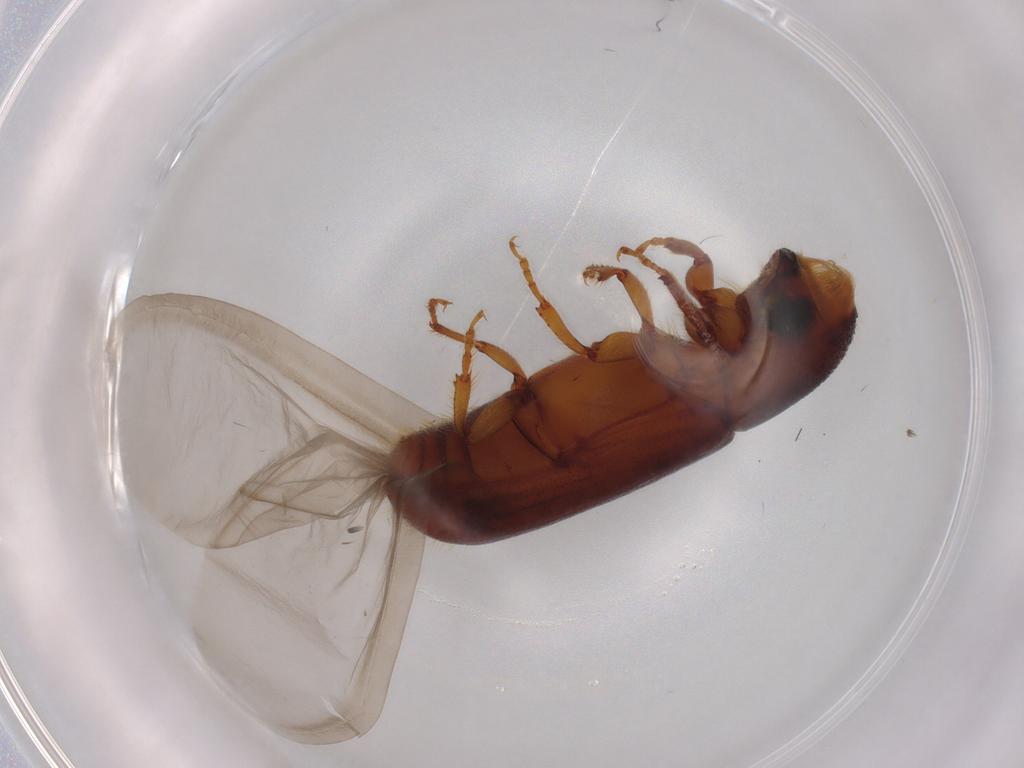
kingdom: Animalia
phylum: Arthropoda
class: Insecta
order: Coleoptera
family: Curculionidae
